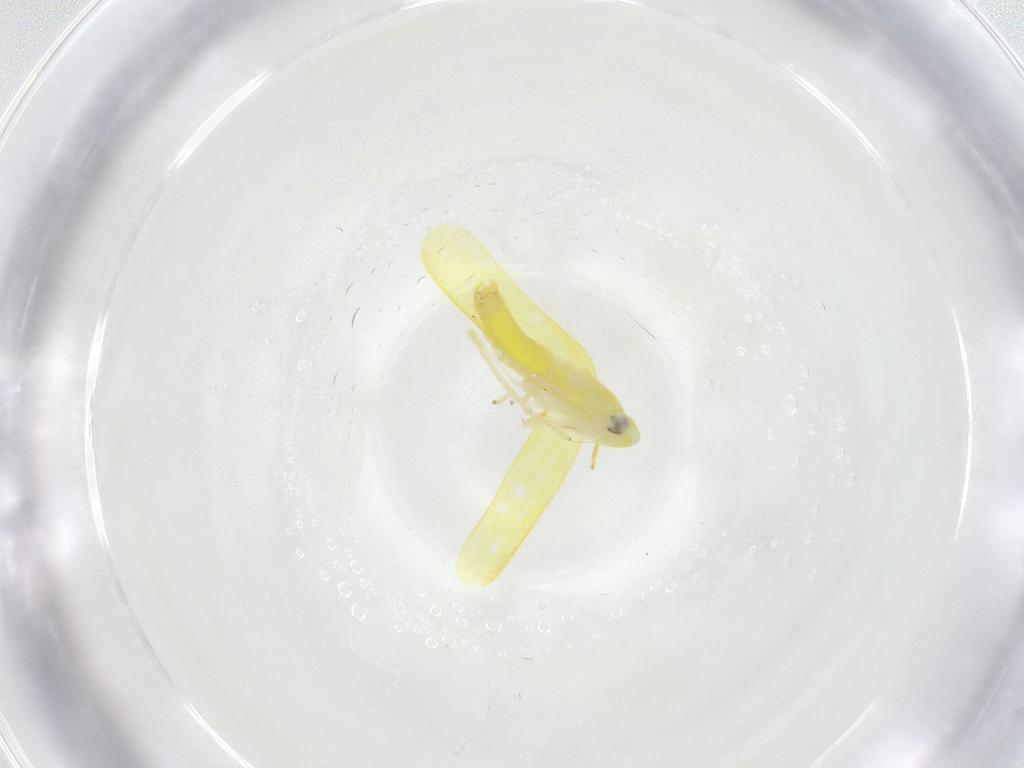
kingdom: Animalia
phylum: Arthropoda
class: Insecta
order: Hemiptera
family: Cicadellidae
